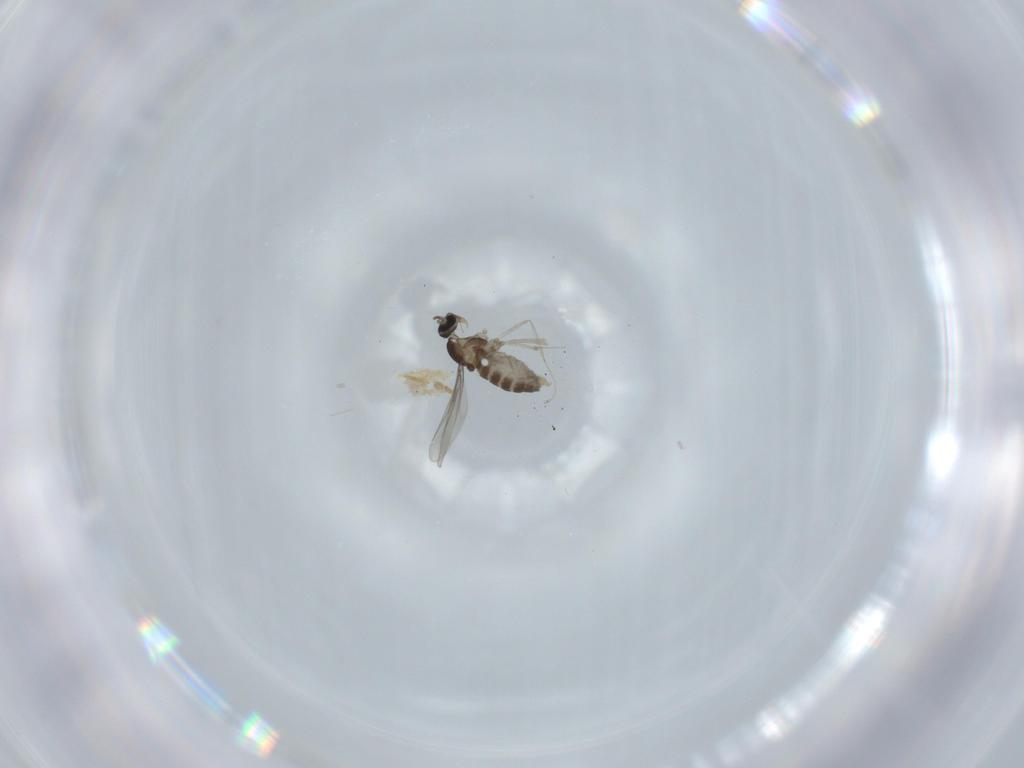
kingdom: Animalia
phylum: Arthropoda
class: Insecta
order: Diptera
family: Cecidomyiidae
